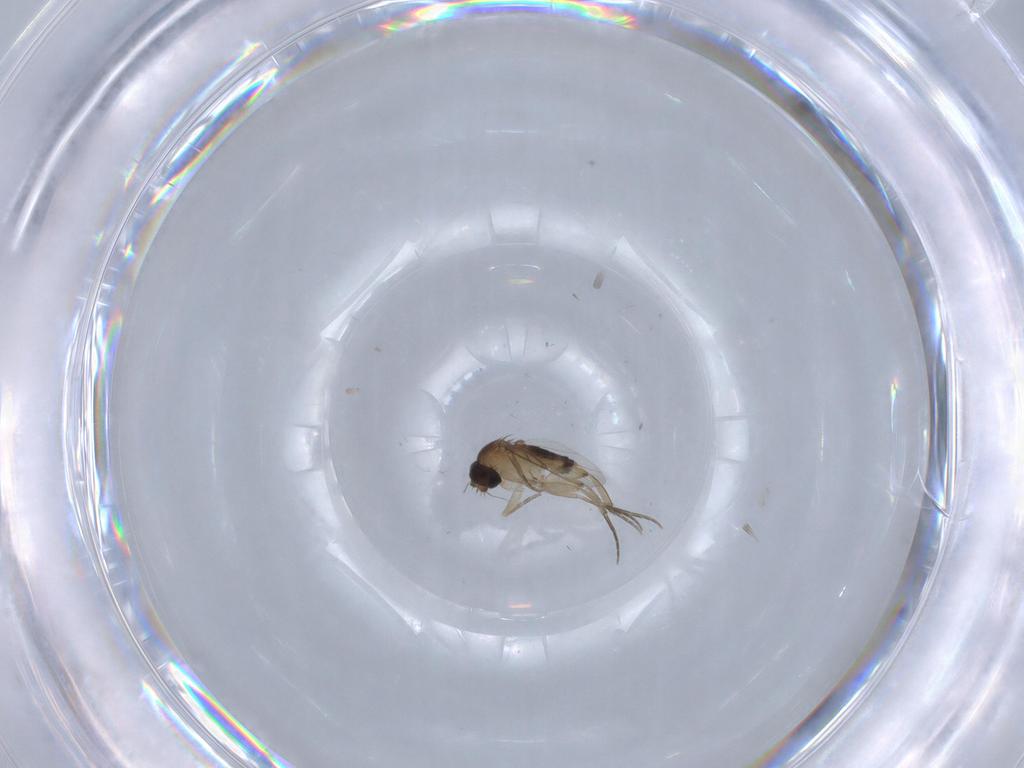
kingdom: Animalia
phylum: Arthropoda
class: Insecta
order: Diptera
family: Phoridae
